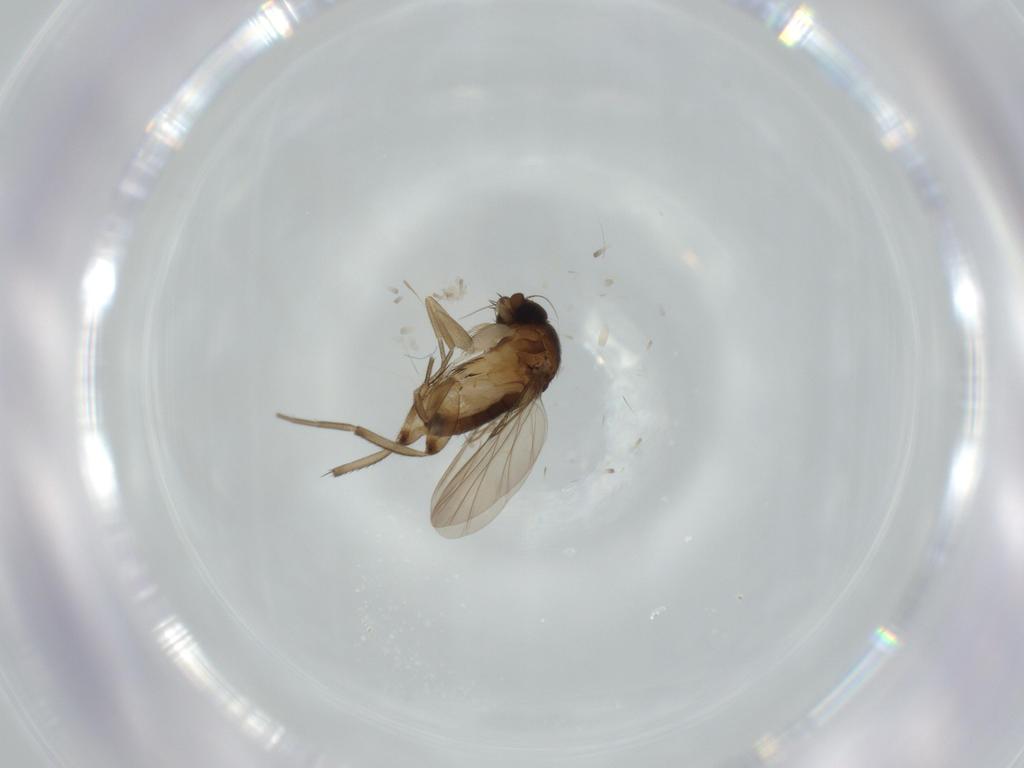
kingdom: Animalia
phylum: Arthropoda
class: Insecta
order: Diptera
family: Phoridae
